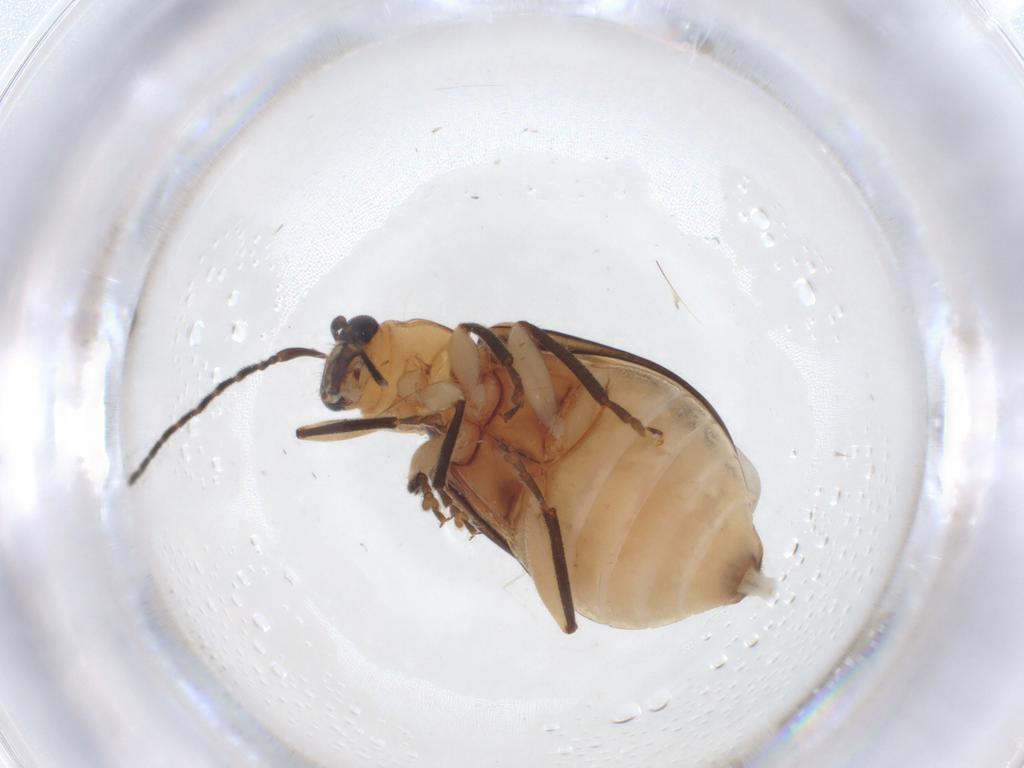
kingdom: Animalia
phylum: Arthropoda
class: Insecta
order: Coleoptera
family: Chrysomelidae
